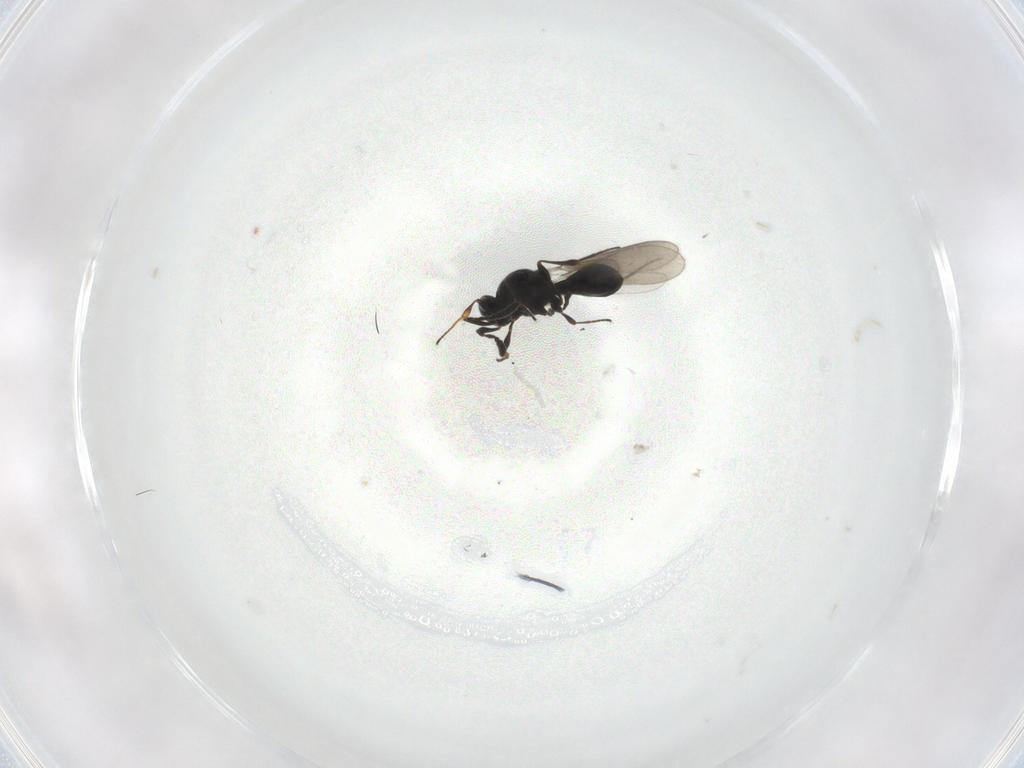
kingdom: Animalia
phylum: Arthropoda
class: Insecta
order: Hymenoptera
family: Platygastridae
